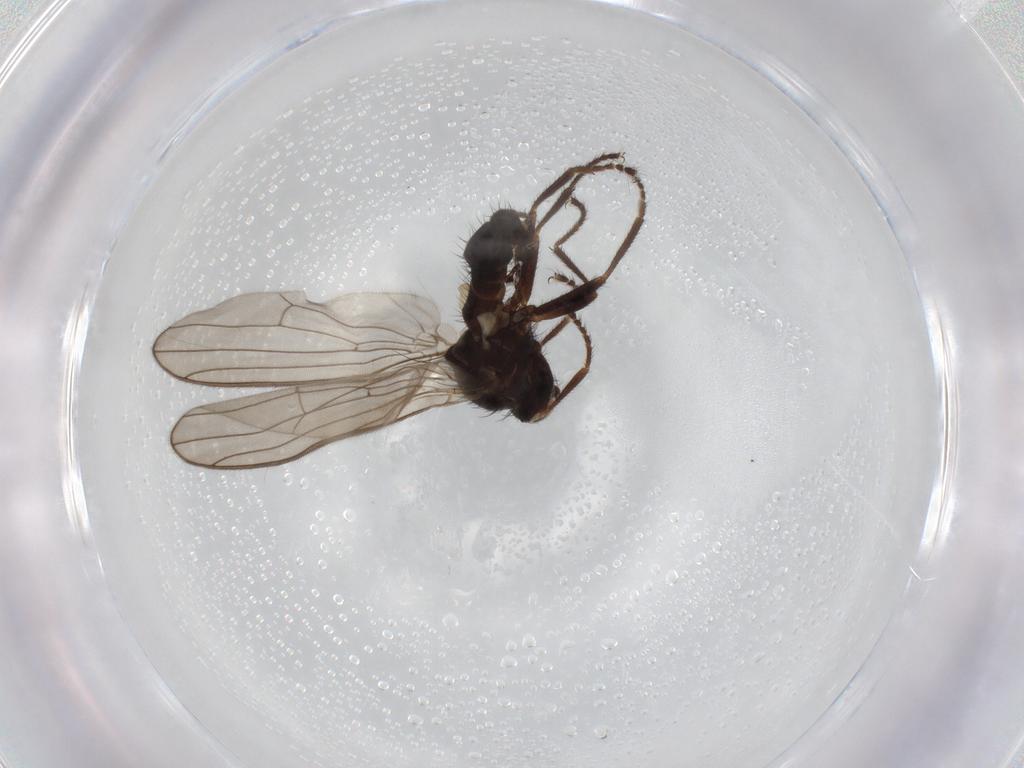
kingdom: Animalia
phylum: Arthropoda
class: Insecta
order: Diptera
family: Heleomyzidae
